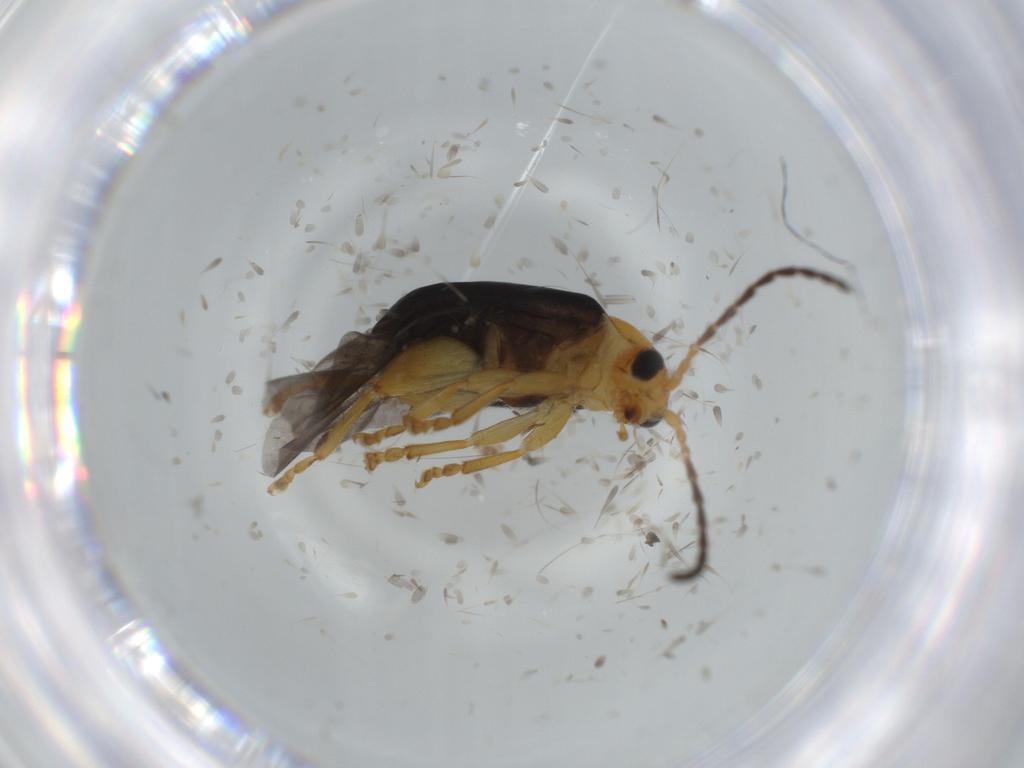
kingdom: Animalia
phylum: Arthropoda
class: Insecta
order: Coleoptera
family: Chrysomelidae
